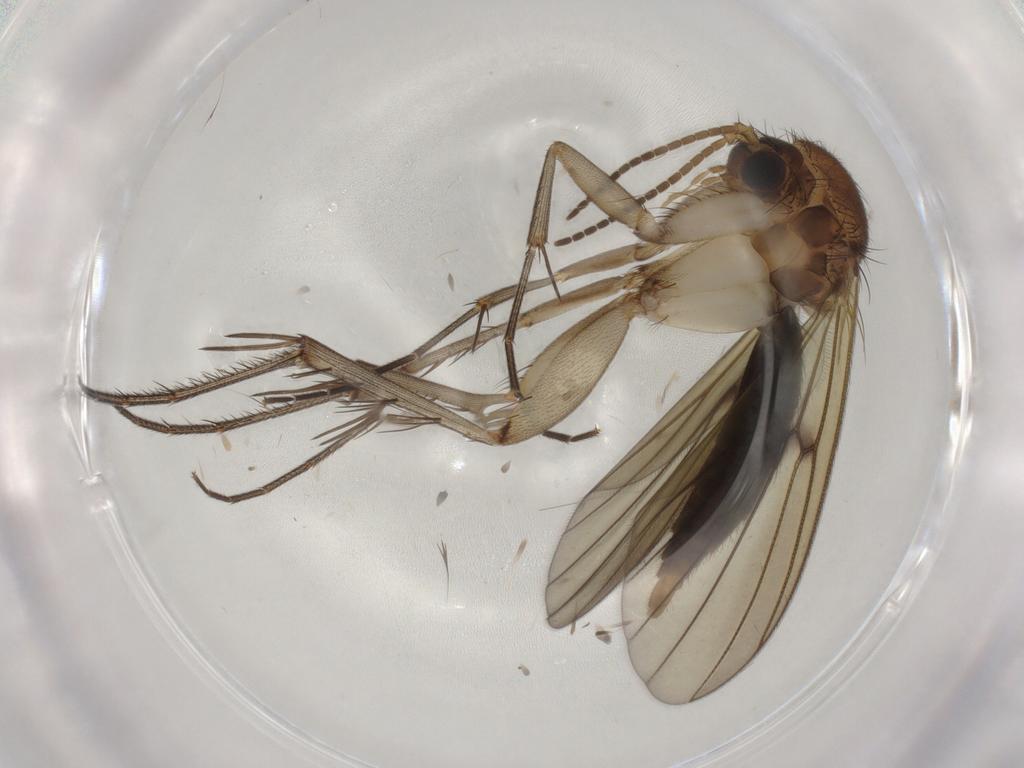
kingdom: Animalia
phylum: Arthropoda
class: Insecta
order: Diptera
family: Mycetophilidae
